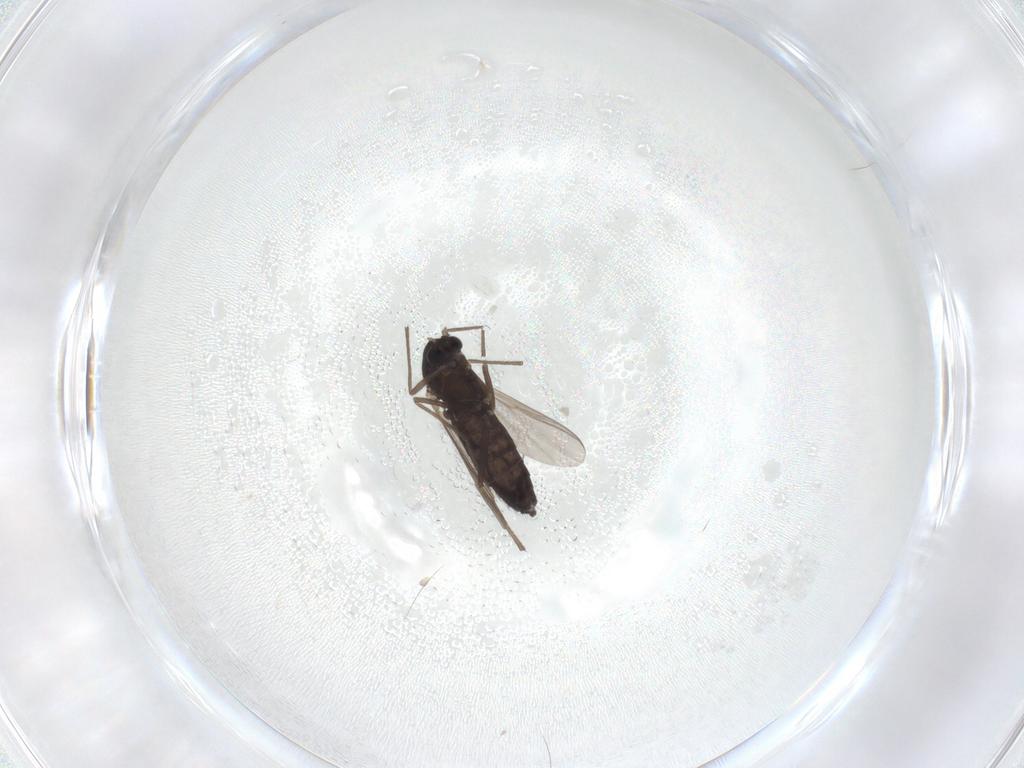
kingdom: Animalia
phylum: Arthropoda
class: Insecta
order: Diptera
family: Chironomidae
